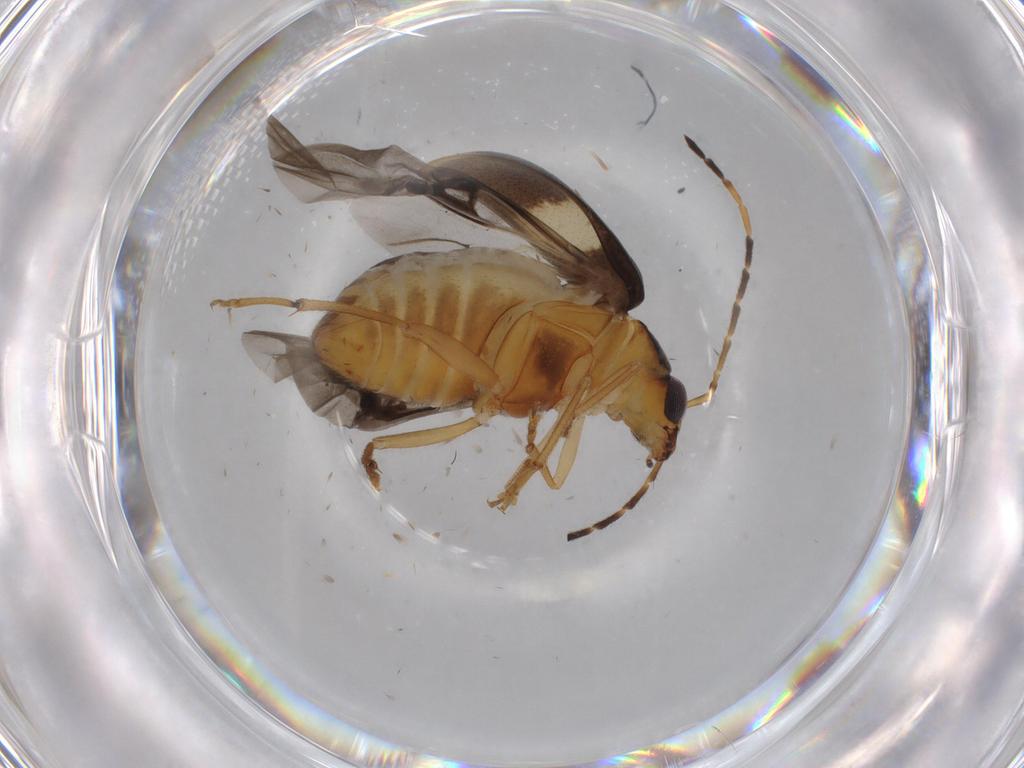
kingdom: Animalia
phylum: Arthropoda
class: Insecta
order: Coleoptera
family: Chrysomelidae
